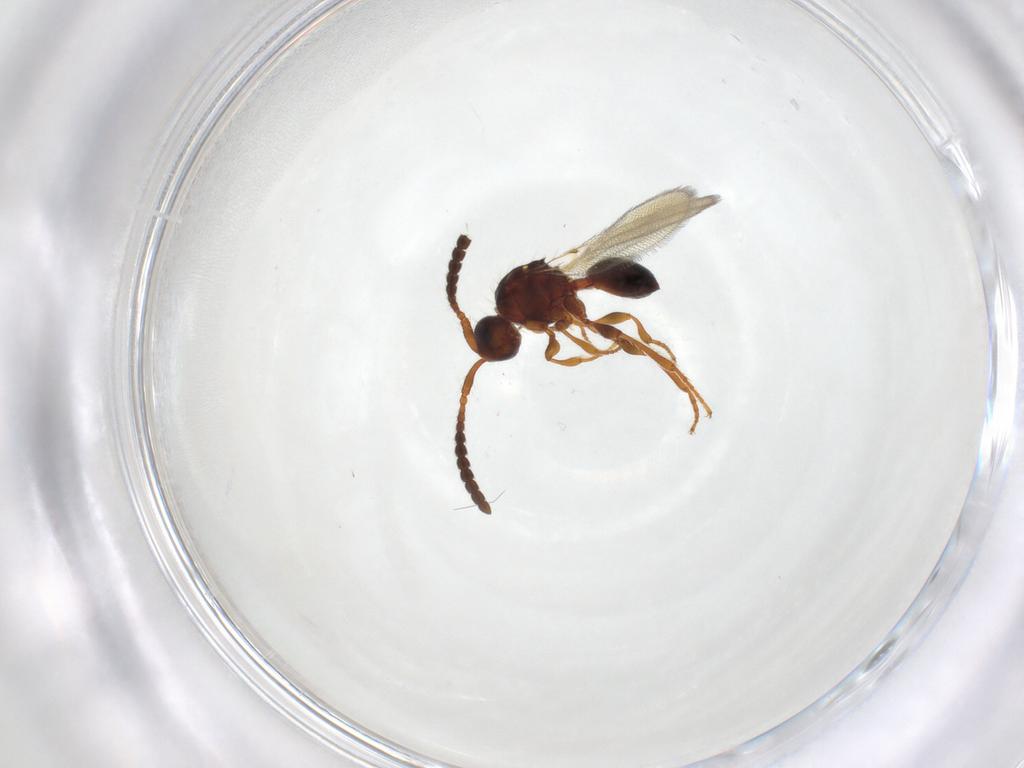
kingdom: Animalia
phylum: Arthropoda
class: Insecta
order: Hymenoptera
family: Diapriidae
